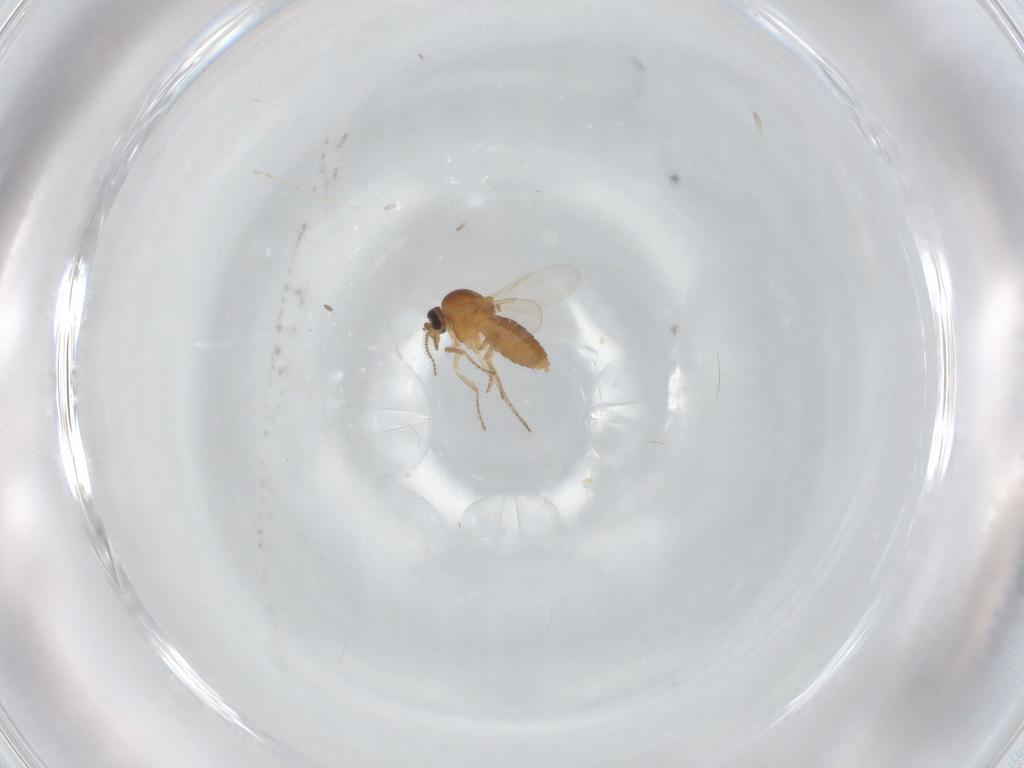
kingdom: Animalia
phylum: Arthropoda
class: Insecta
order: Diptera
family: Ceratopogonidae
